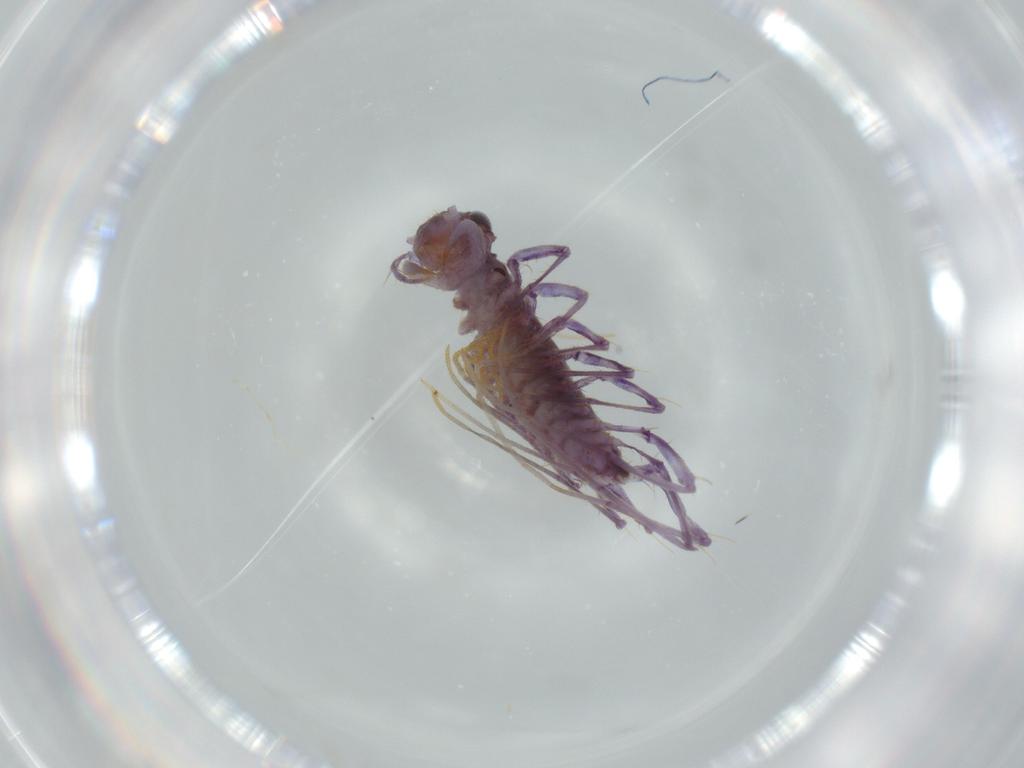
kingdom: Animalia
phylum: Arthropoda
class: Chilopoda
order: Scutigeromorpha
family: Scutigeridae
